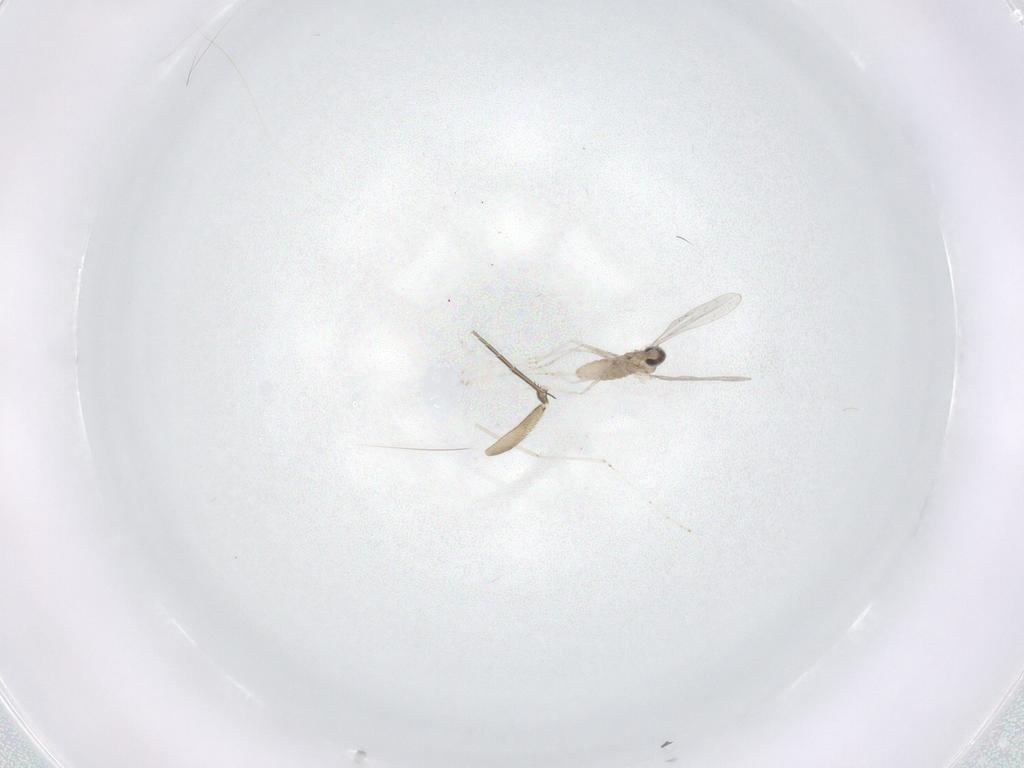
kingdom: Animalia
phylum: Arthropoda
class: Insecta
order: Diptera
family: Cecidomyiidae
